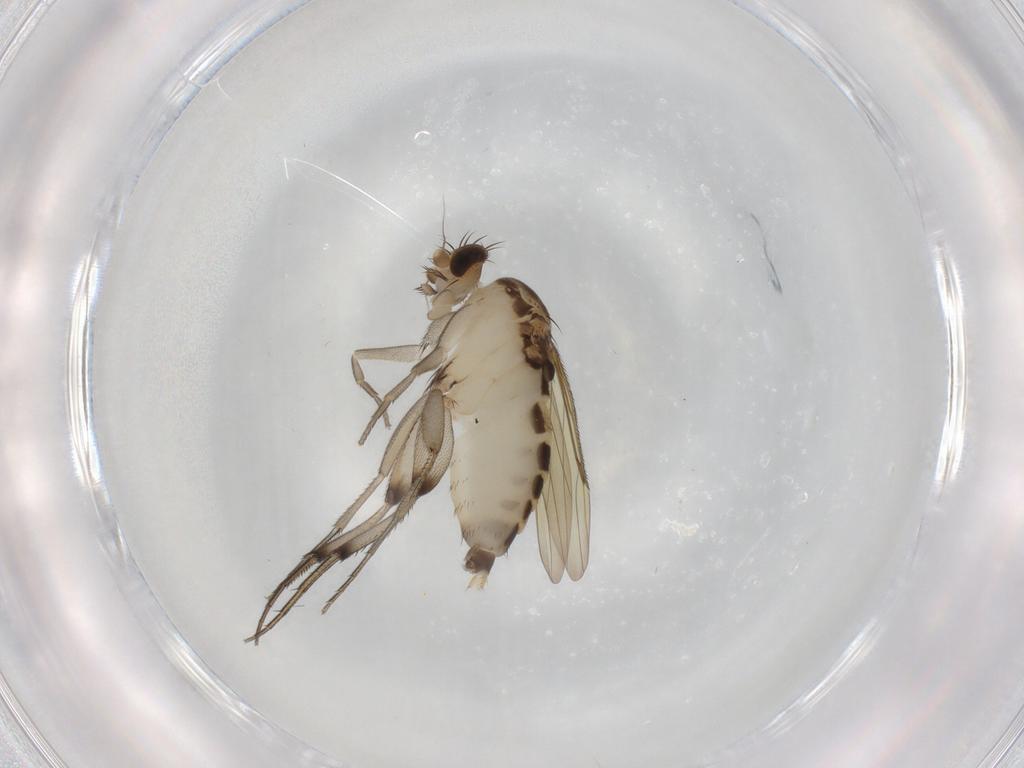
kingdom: Animalia
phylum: Arthropoda
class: Insecta
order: Diptera
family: Phoridae
